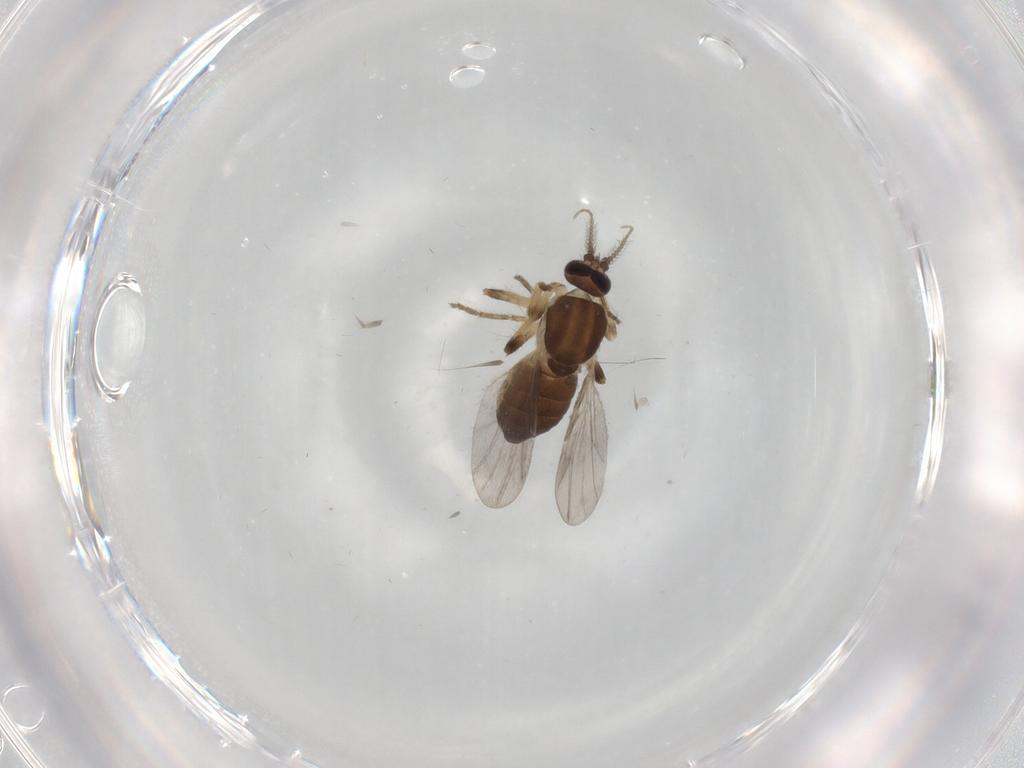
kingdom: Animalia
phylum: Arthropoda
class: Insecta
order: Diptera
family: Ceratopogonidae
